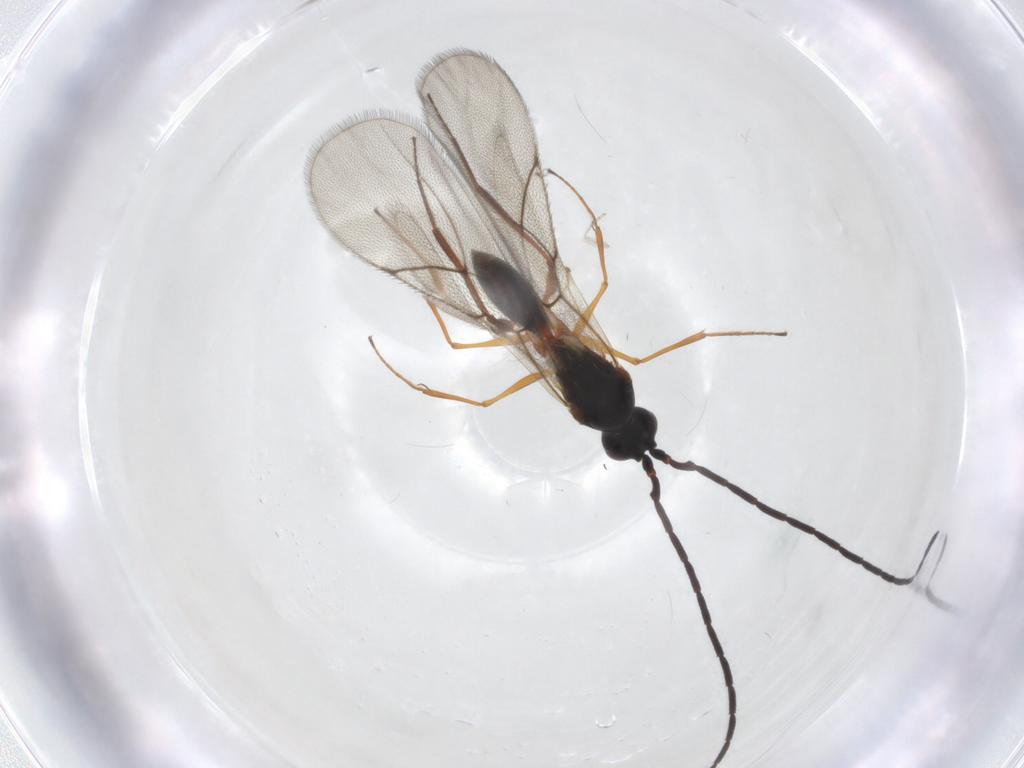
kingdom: Animalia
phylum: Arthropoda
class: Insecta
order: Hymenoptera
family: Figitidae
